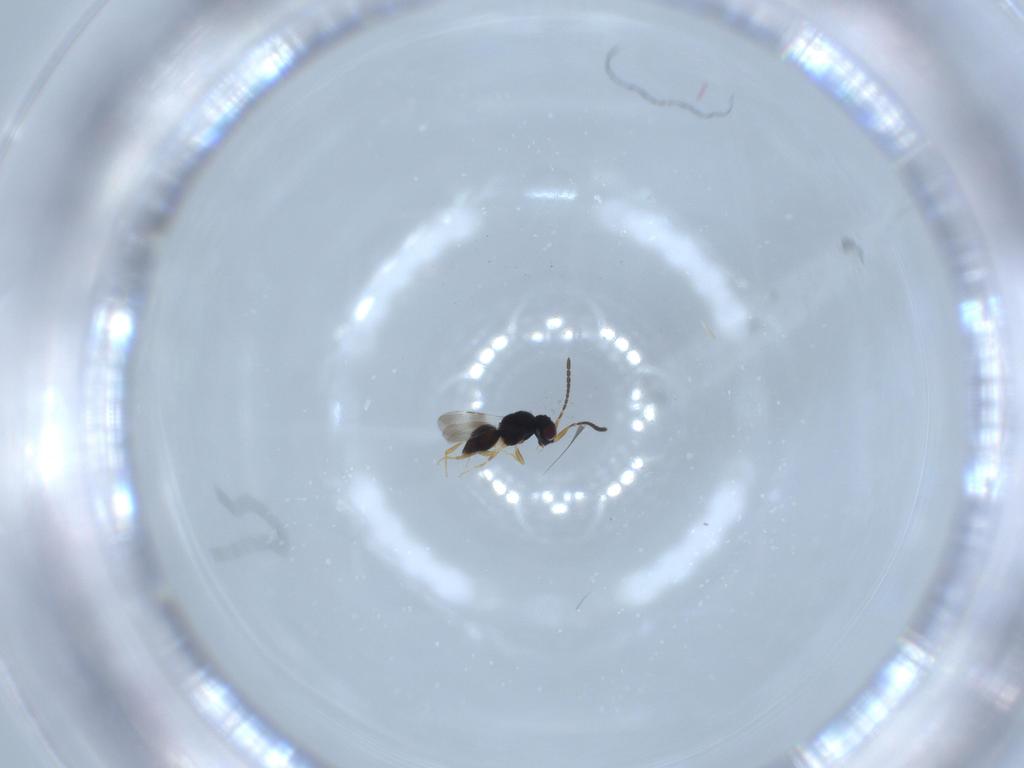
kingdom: Animalia
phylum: Arthropoda
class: Insecta
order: Hymenoptera
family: Ceraphronidae
